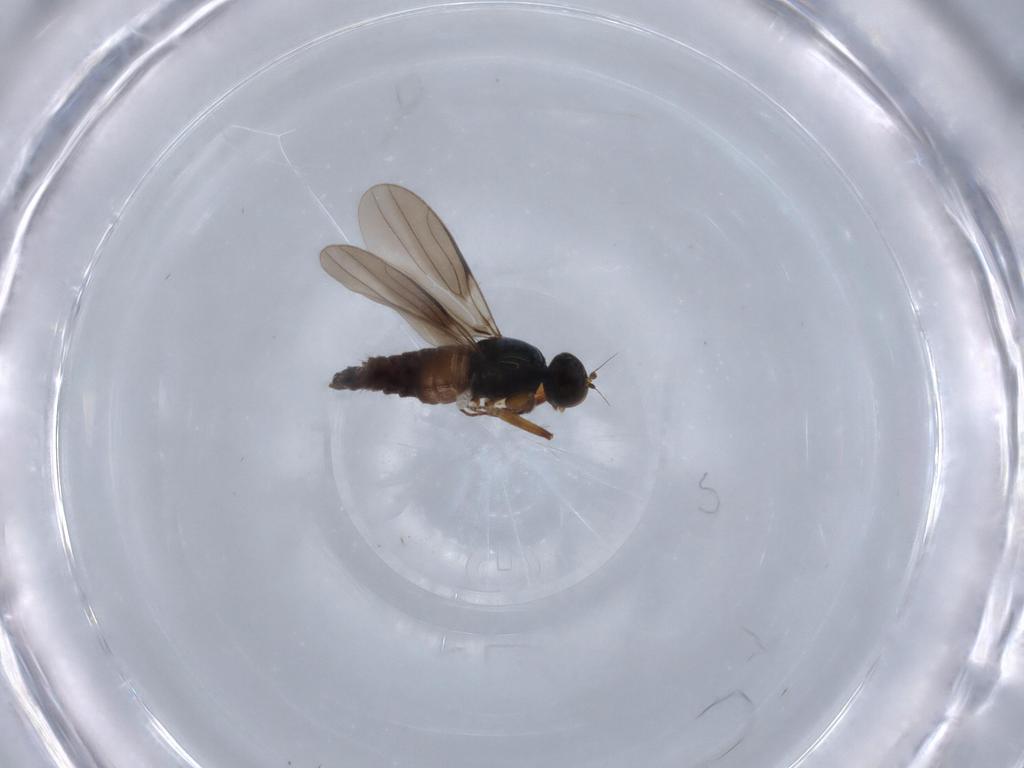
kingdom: Animalia
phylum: Arthropoda
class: Insecta
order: Diptera
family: Hybotidae
